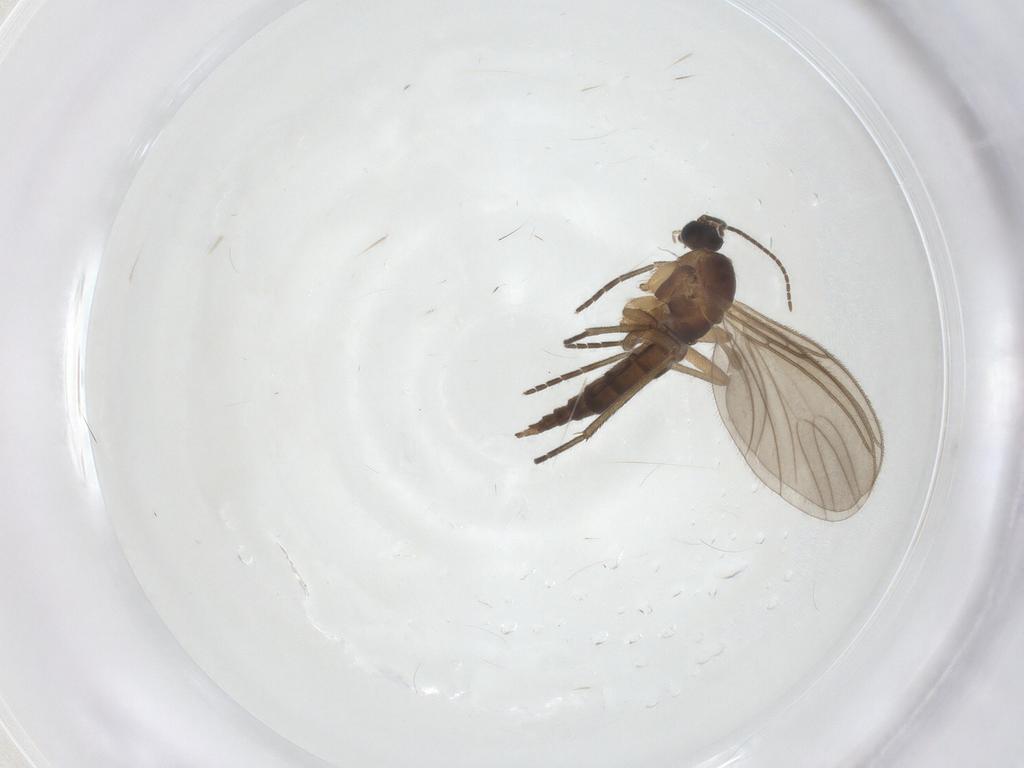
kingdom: Animalia
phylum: Arthropoda
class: Insecta
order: Diptera
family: Sciaridae
